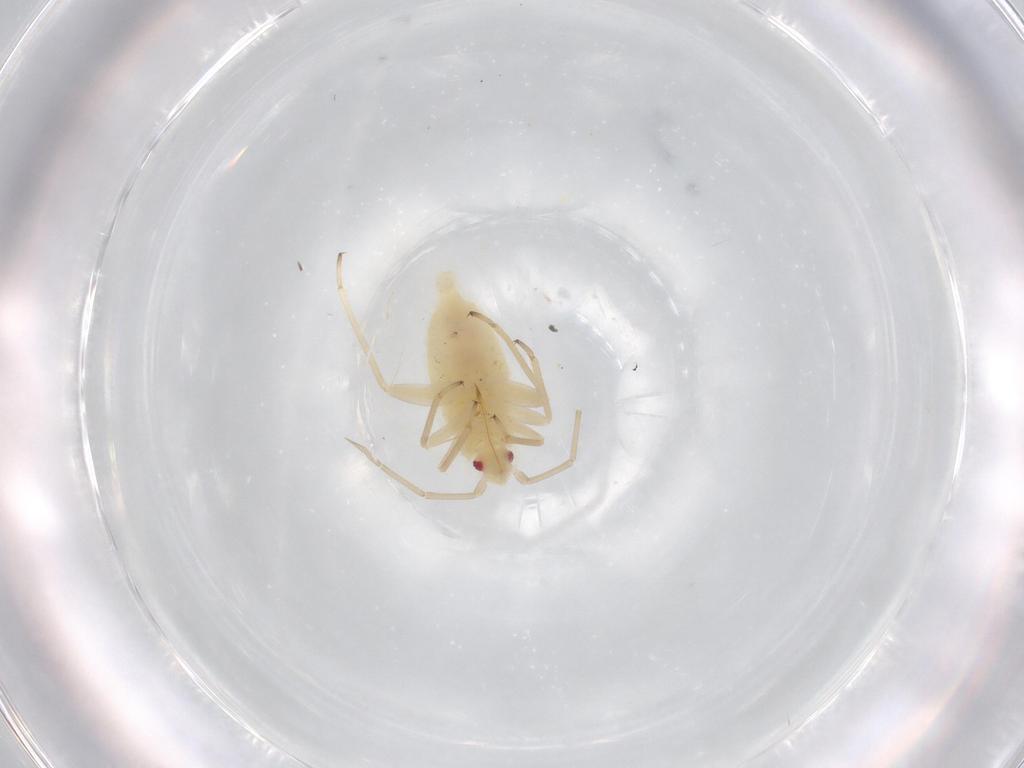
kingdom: Animalia
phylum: Arthropoda
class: Insecta
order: Hemiptera
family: Miridae
